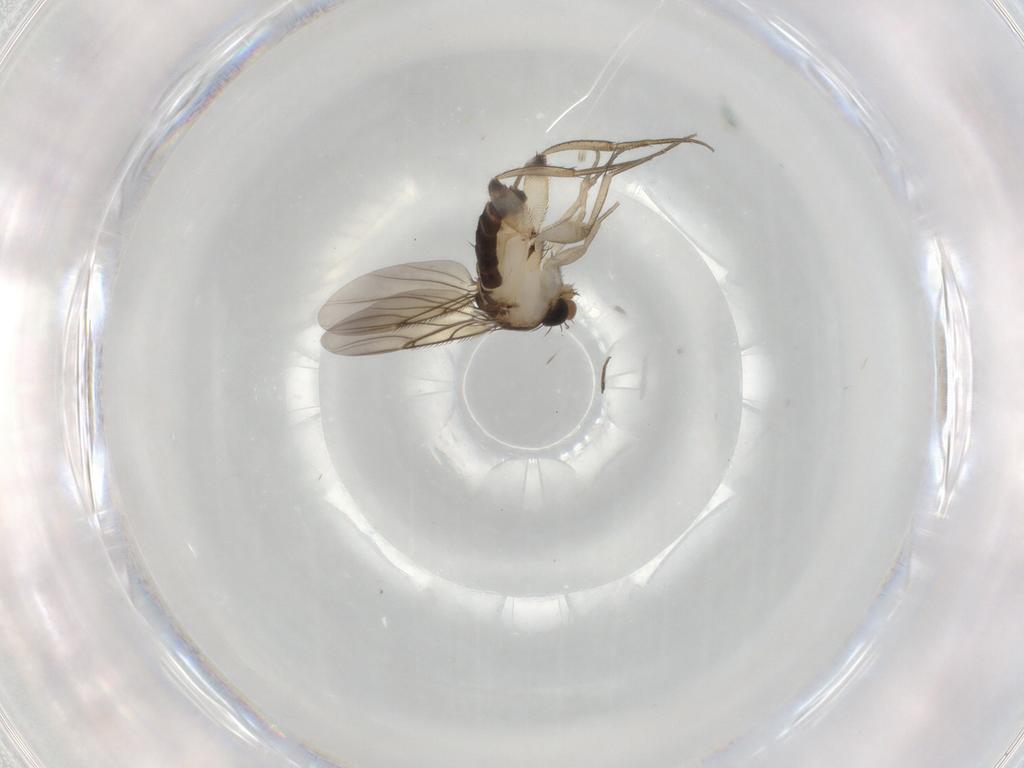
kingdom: Animalia
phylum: Arthropoda
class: Insecta
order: Diptera
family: Phoridae
